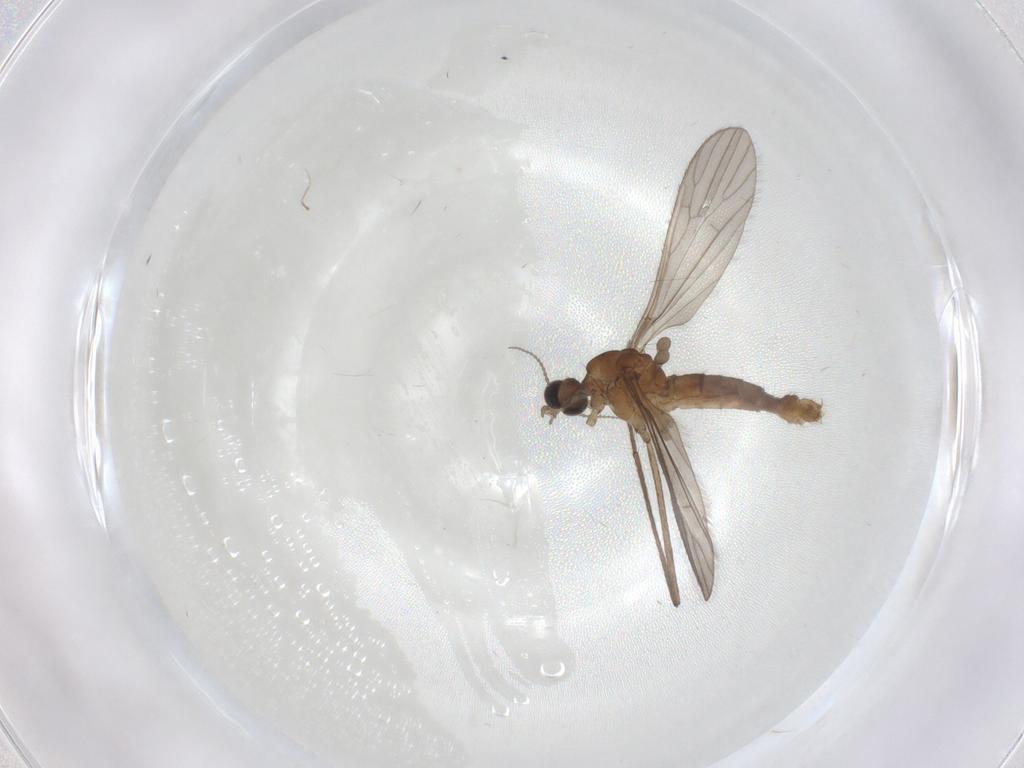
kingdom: Animalia
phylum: Arthropoda
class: Insecta
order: Diptera
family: Limoniidae
